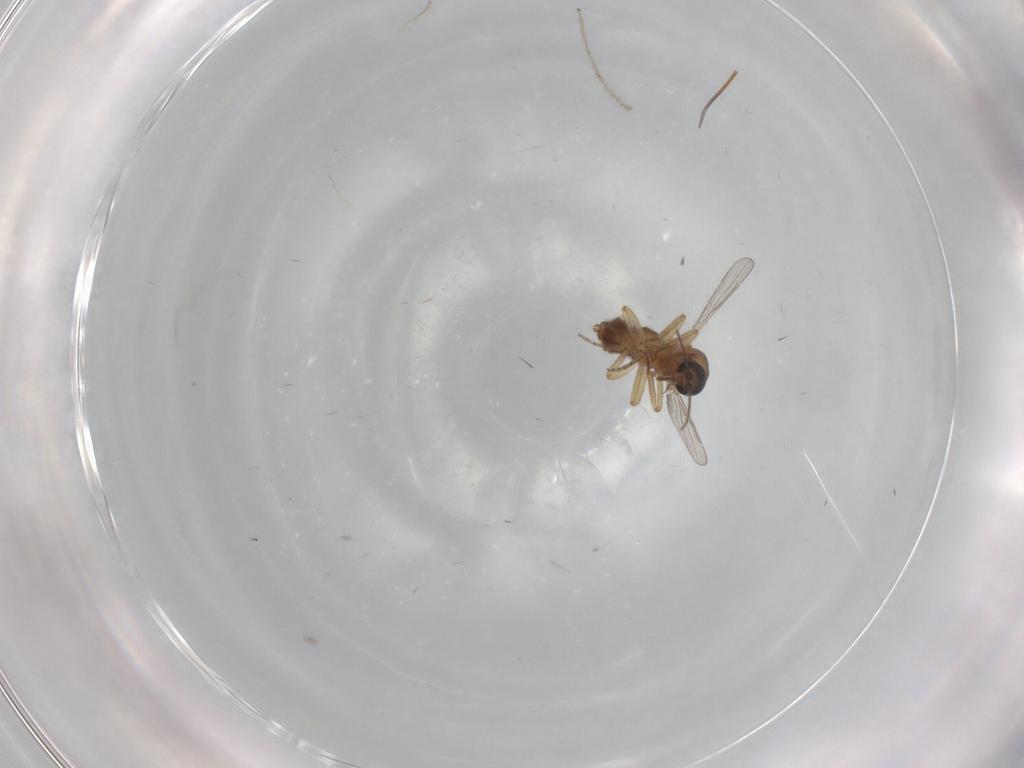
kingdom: Animalia
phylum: Arthropoda
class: Insecta
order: Diptera
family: Ceratopogonidae
